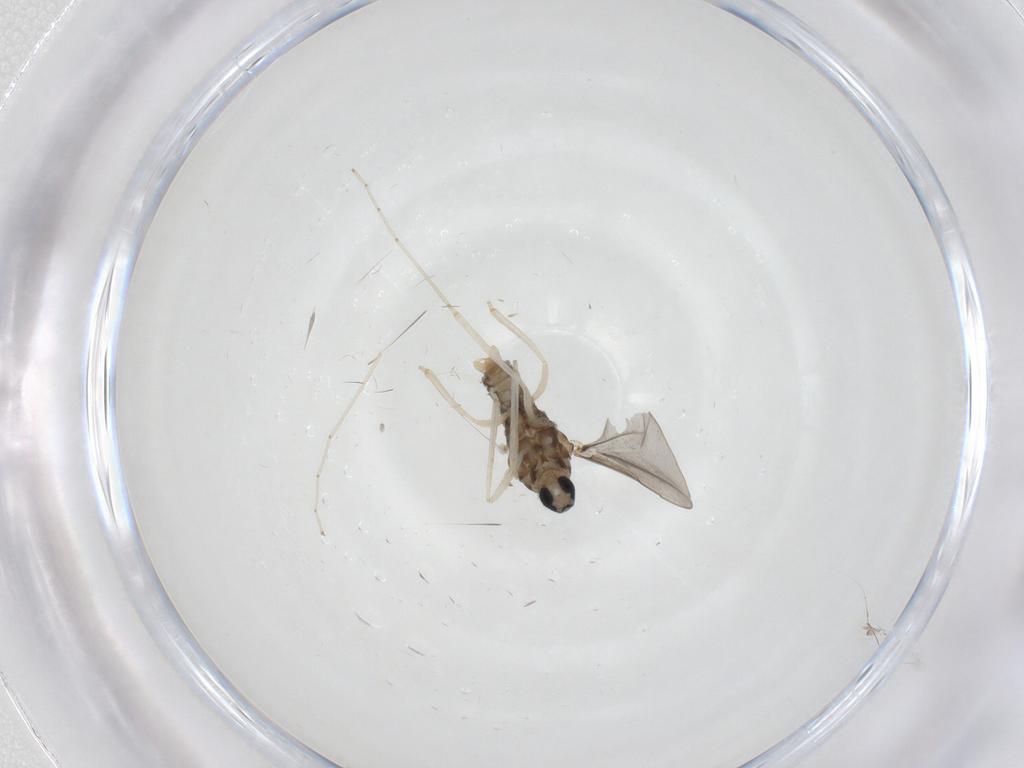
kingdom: Animalia
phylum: Arthropoda
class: Insecta
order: Diptera
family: Cecidomyiidae
